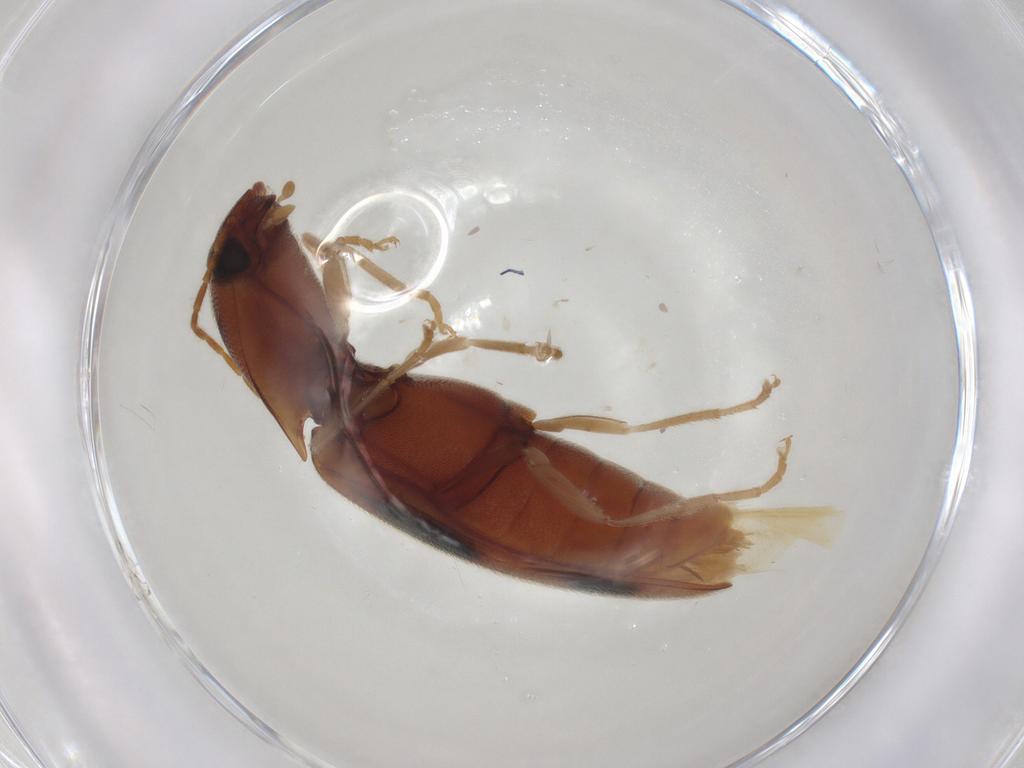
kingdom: Animalia
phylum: Arthropoda
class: Insecta
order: Coleoptera
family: Elateridae
